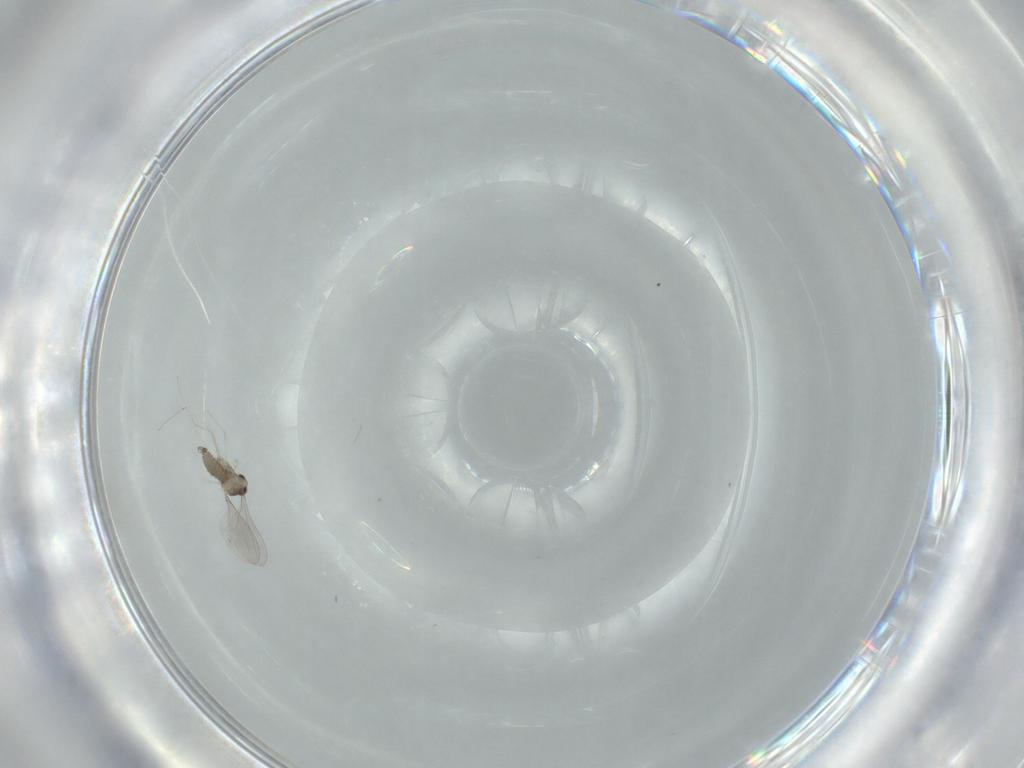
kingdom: Animalia
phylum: Arthropoda
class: Insecta
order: Diptera
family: Cecidomyiidae
